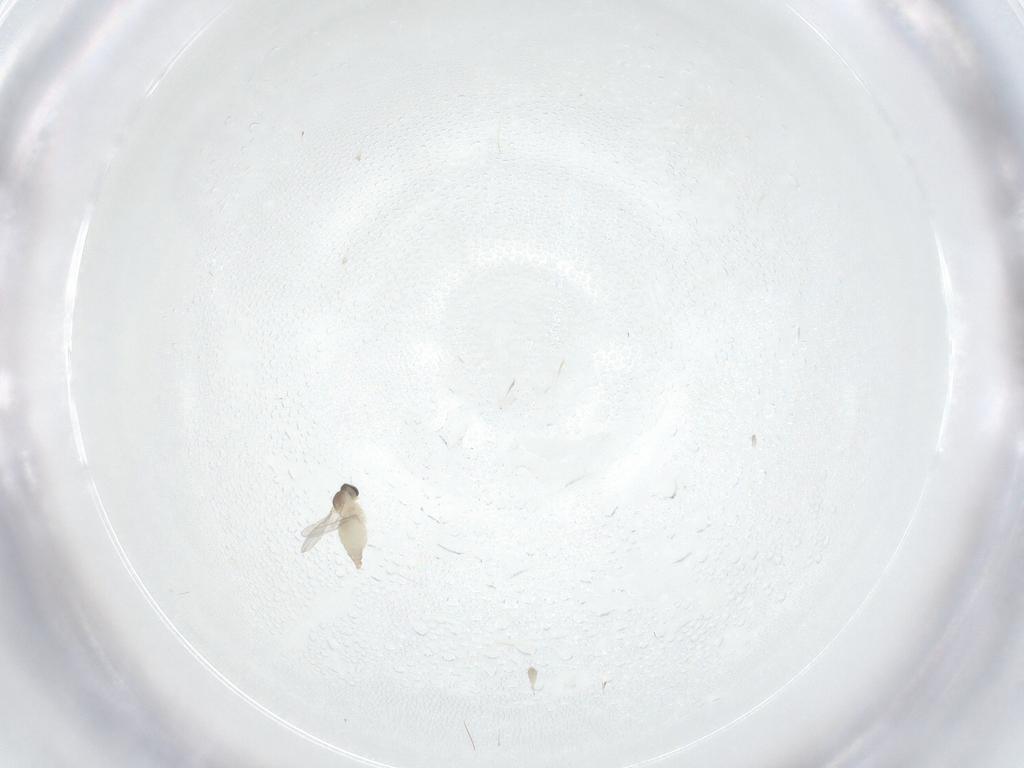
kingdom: Animalia
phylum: Arthropoda
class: Insecta
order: Diptera
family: Cecidomyiidae
